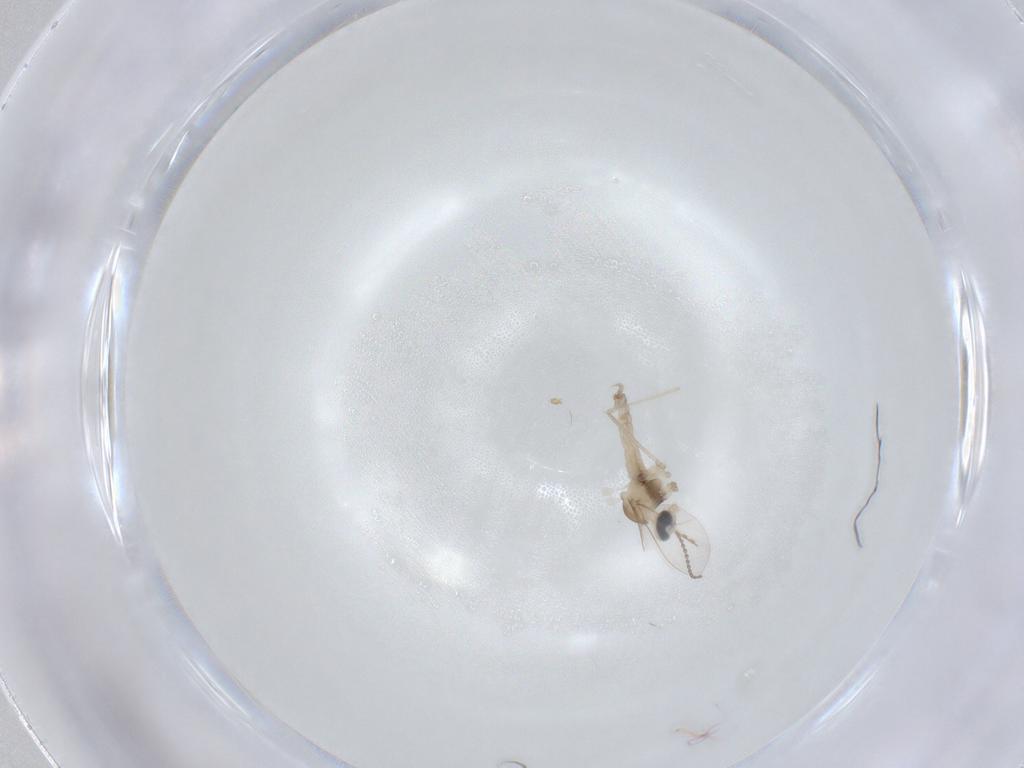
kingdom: Animalia
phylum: Arthropoda
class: Insecta
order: Diptera
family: Cecidomyiidae
